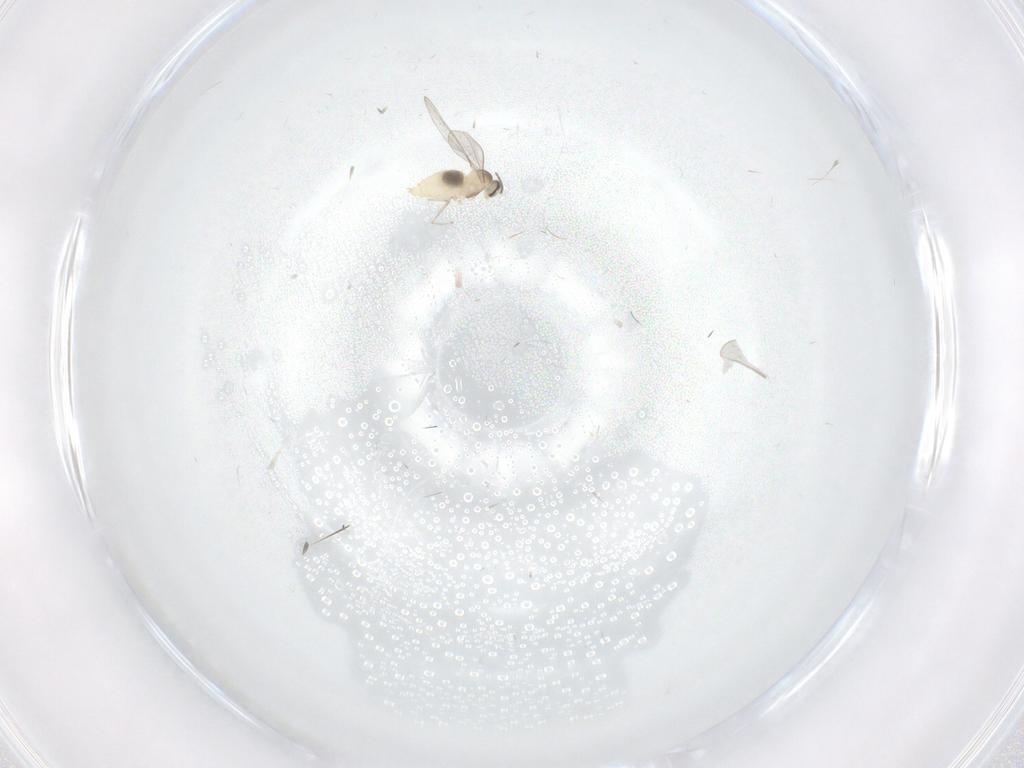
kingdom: Animalia
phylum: Arthropoda
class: Insecta
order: Diptera
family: Cecidomyiidae
